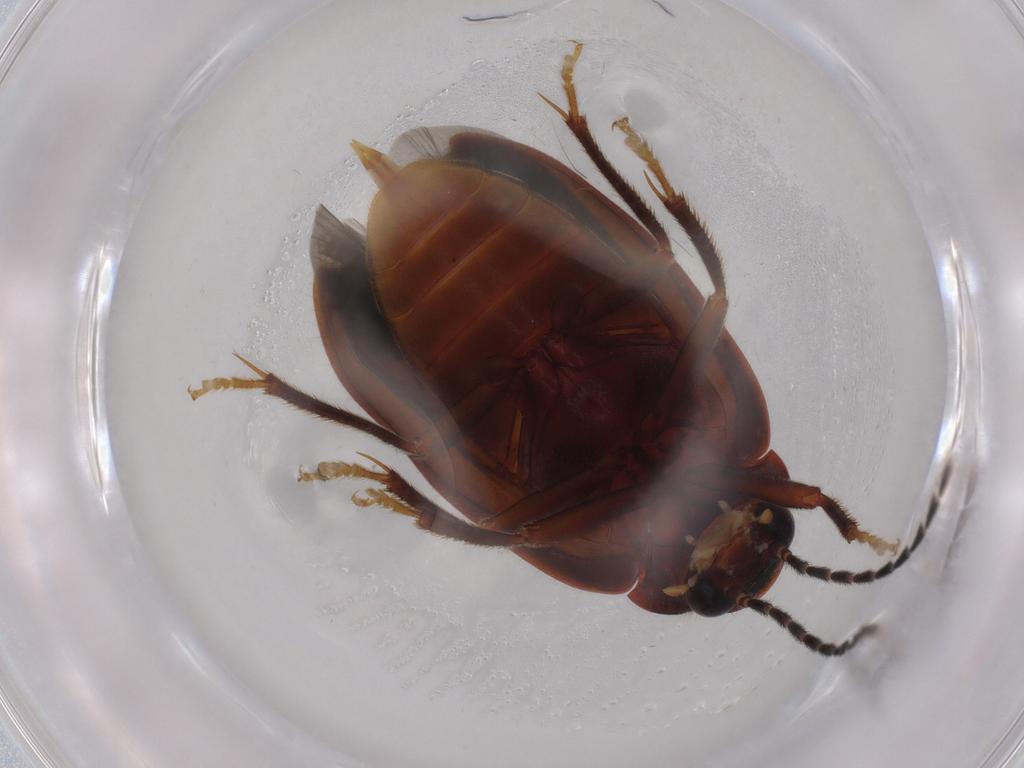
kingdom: Animalia
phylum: Arthropoda
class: Insecta
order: Coleoptera
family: Ptilodactylidae
